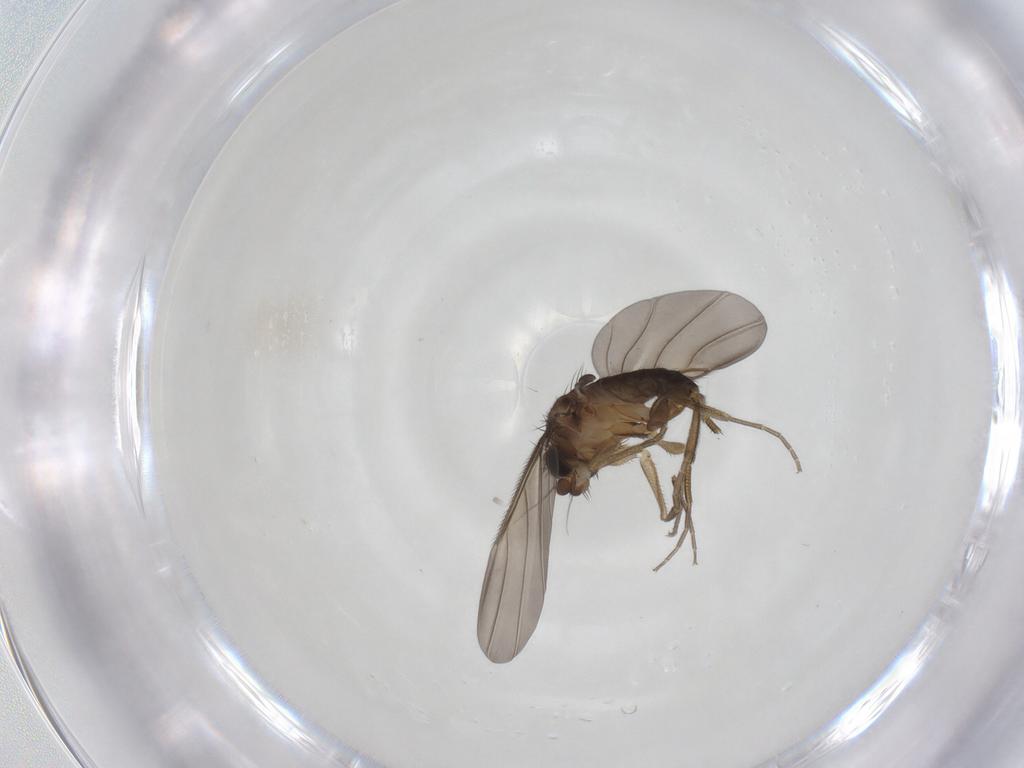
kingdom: Animalia
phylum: Arthropoda
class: Insecta
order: Diptera
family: Phoridae
